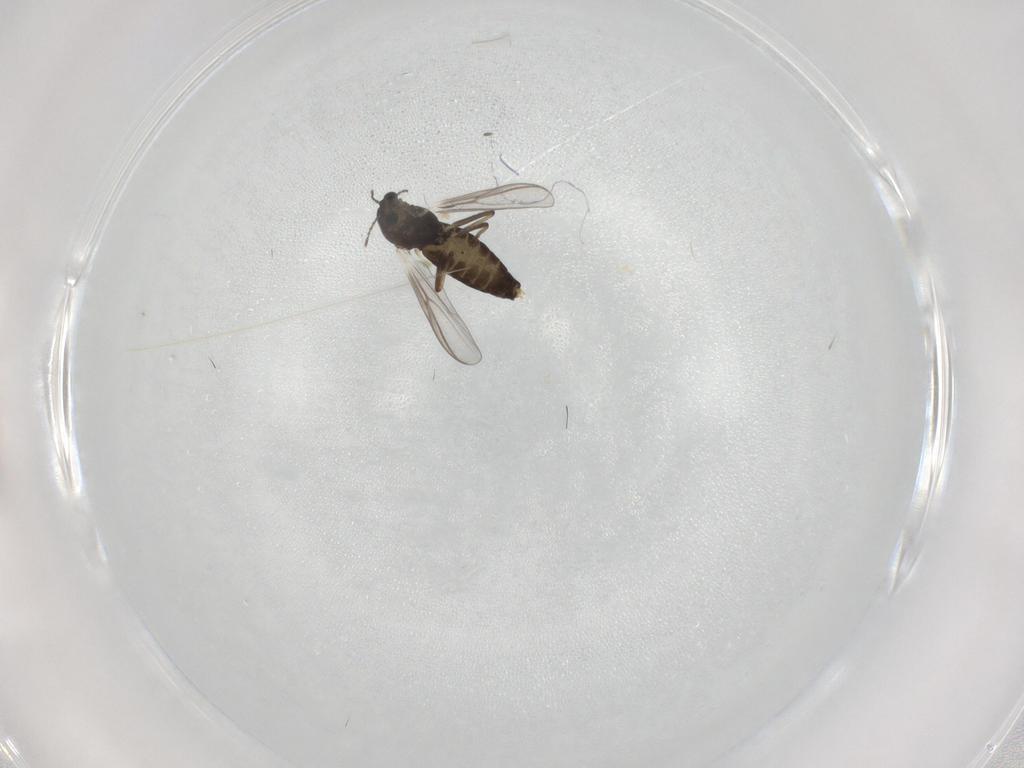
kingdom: Animalia
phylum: Arthropoda
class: Insecta
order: Diptera
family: Chironomidae
